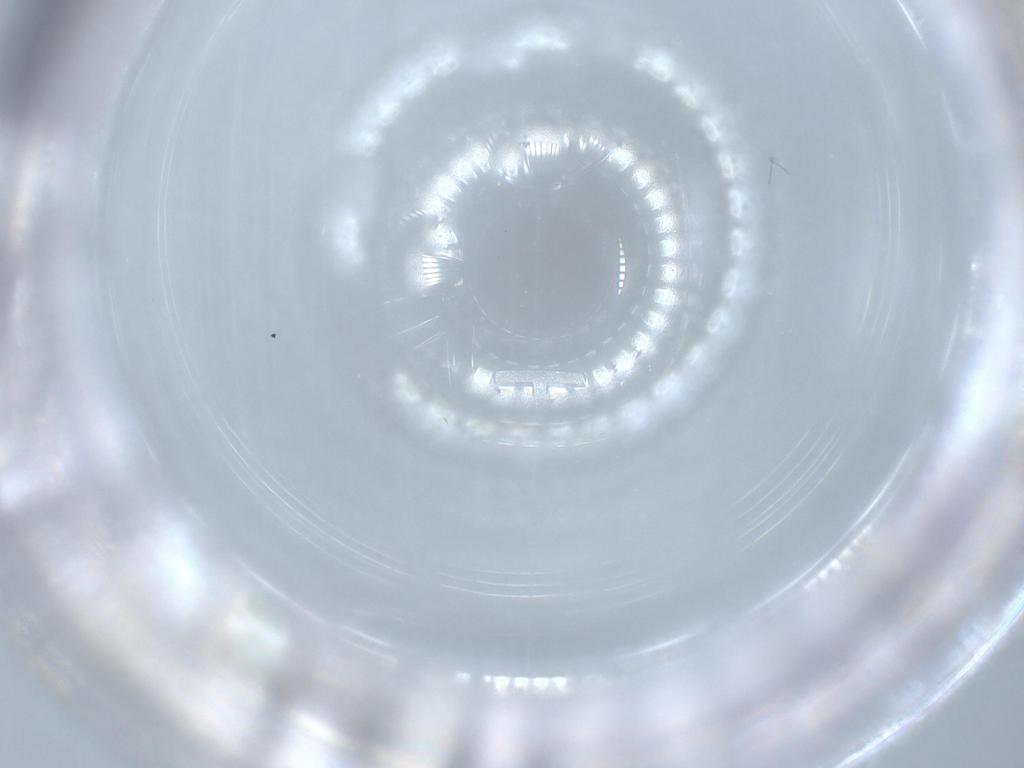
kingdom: Animalia
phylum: Arthropoda
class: Insecta
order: Diptera
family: Dolichopodidae
